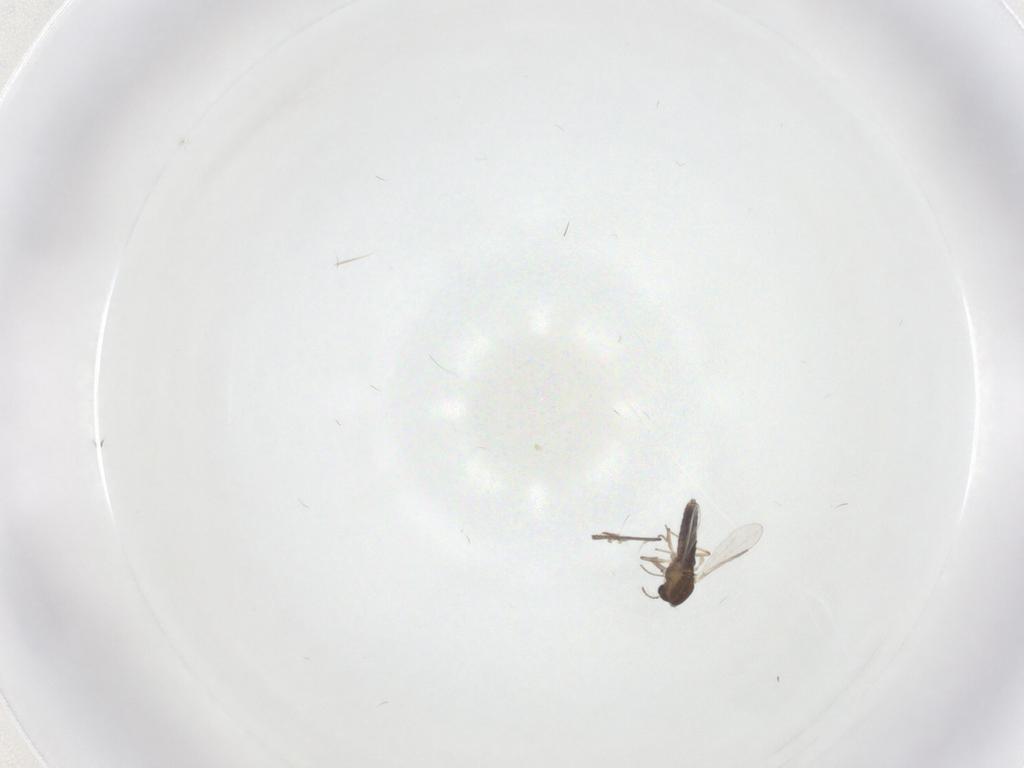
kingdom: Animalia
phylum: Arthropoda
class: Insecta
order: Diptera
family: Chironomidae
